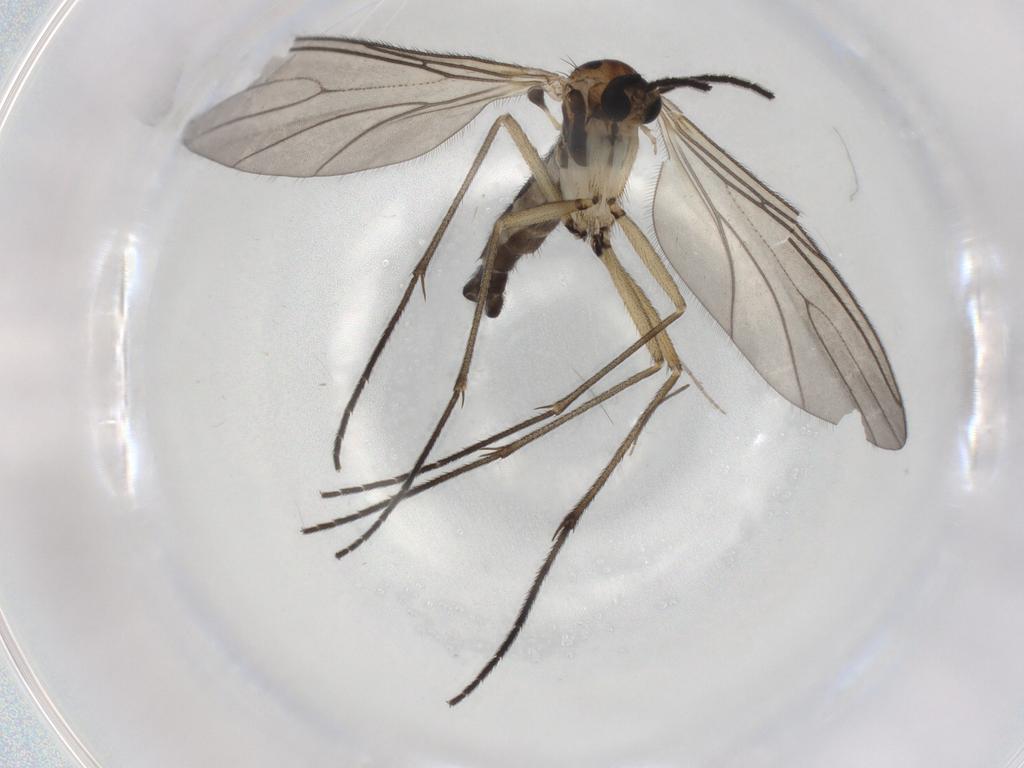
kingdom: Animalia
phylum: Arthropoda
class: Insecta
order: Diptera
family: Sciaridae
